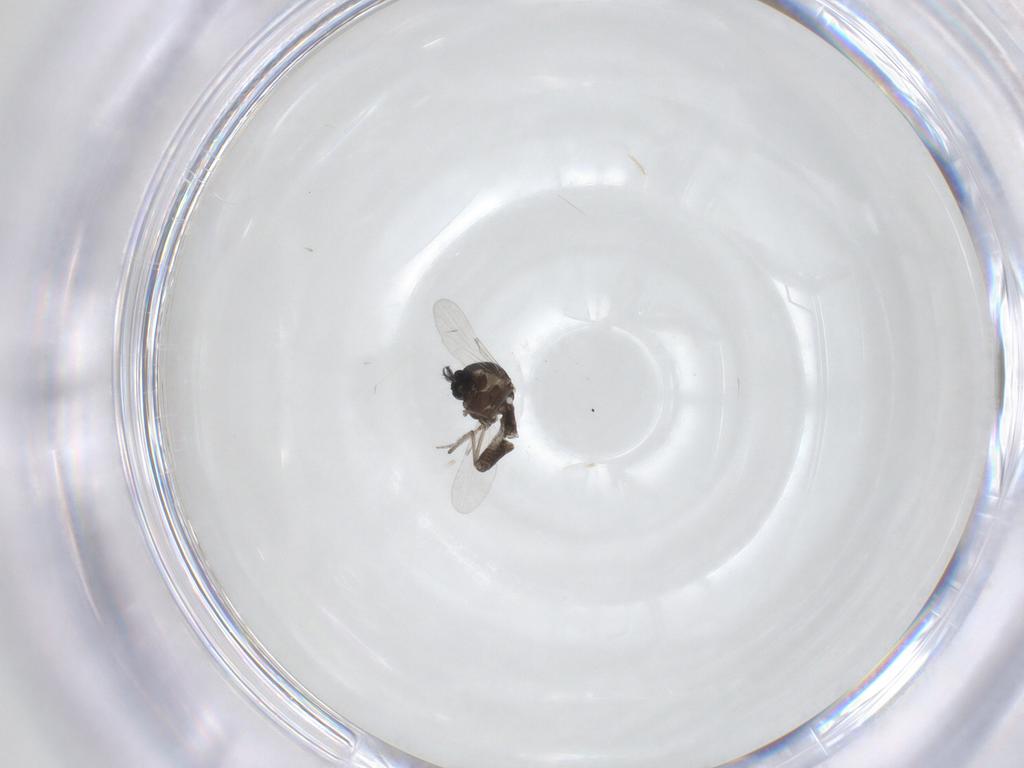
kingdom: Animalia
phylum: Arthropoda
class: Insecta
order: Diptera
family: Ceratopogonidae
